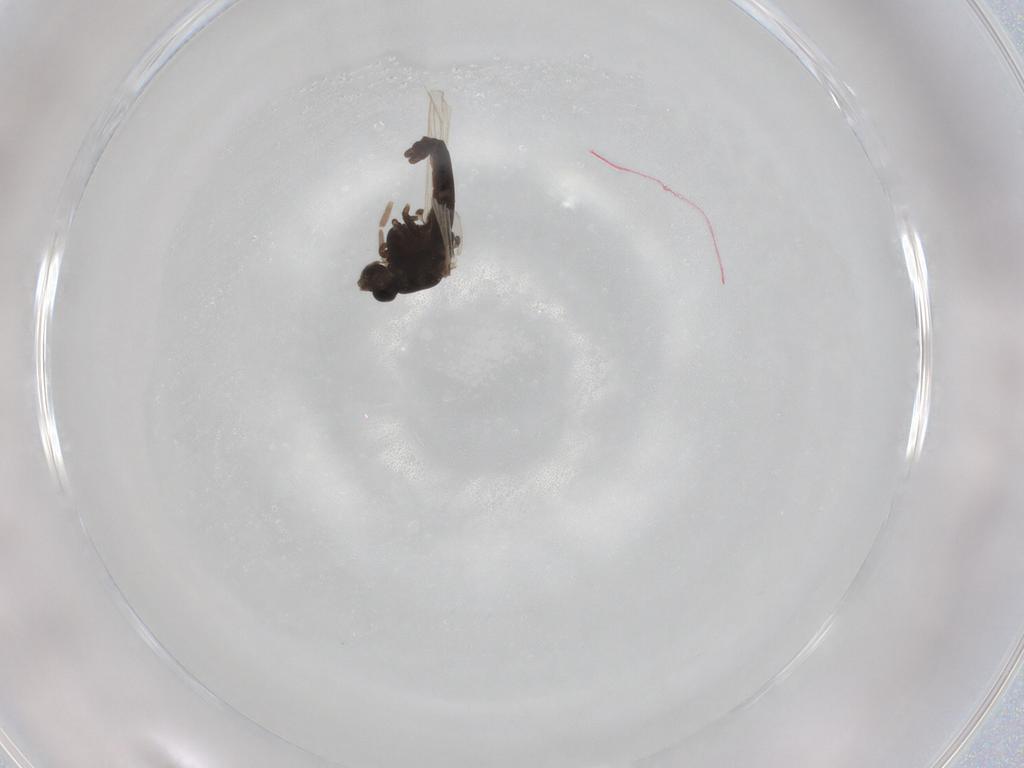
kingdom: Animalia
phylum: Arthropoda
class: Insecta
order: Diptera
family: Chironomidae
